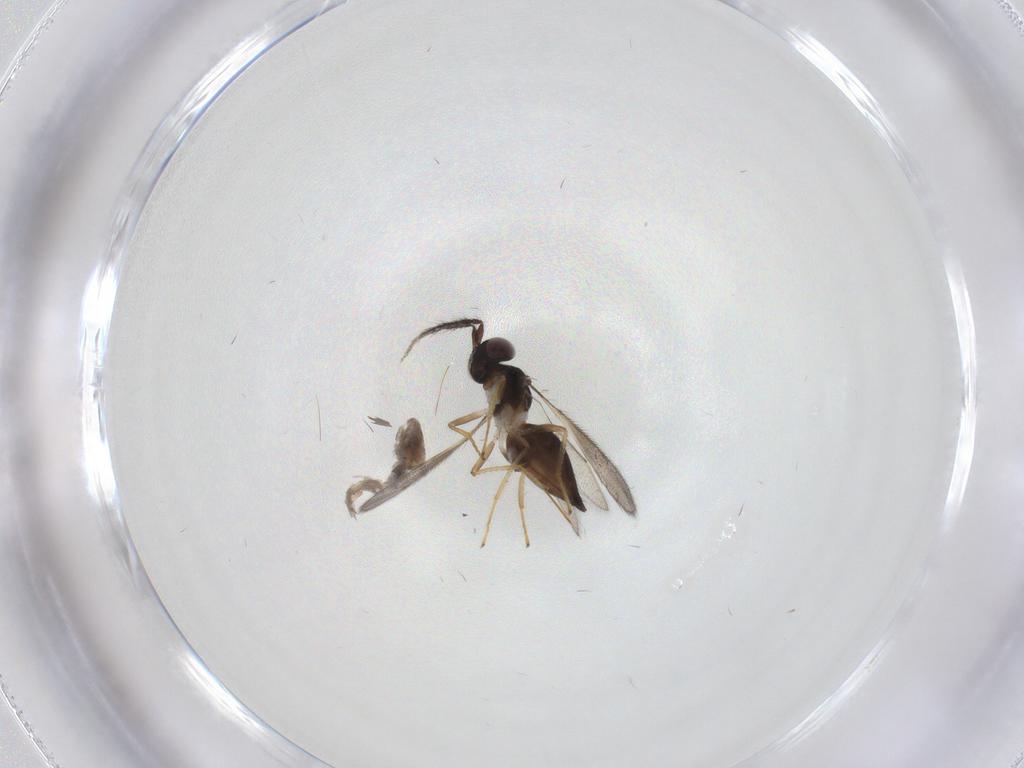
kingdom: Animalia
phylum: Arthropoda
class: Insecta
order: Hymenoptera
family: Eulophidae
